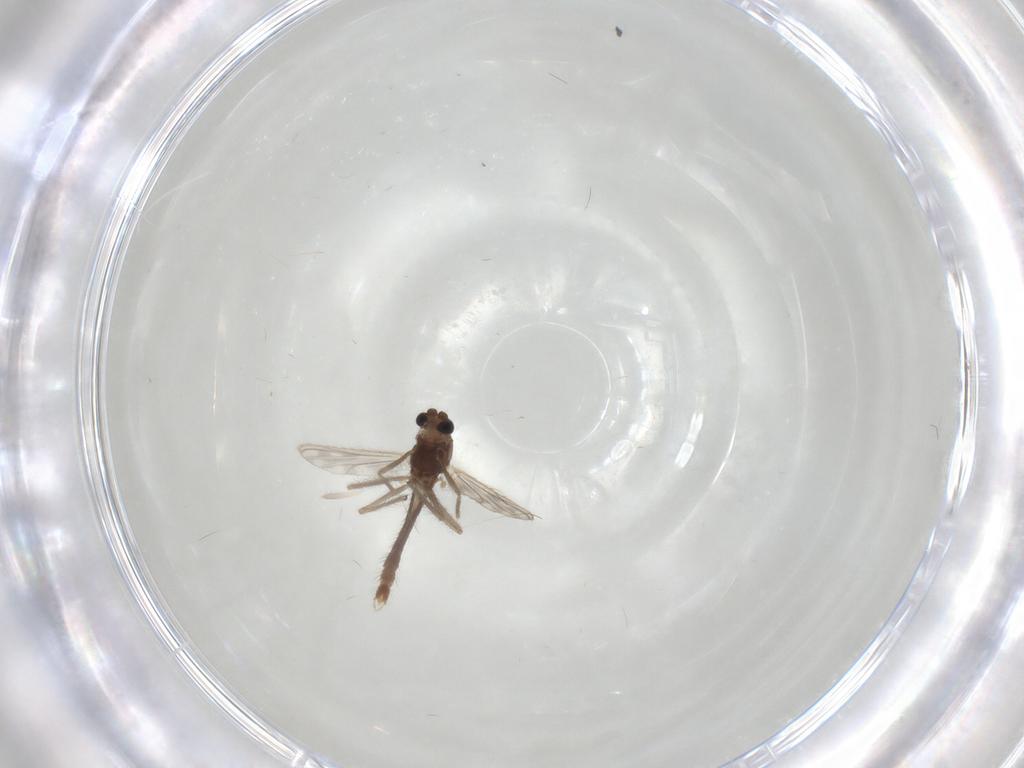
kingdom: Animalia
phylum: Arthropoda
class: Insecta
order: Diptera
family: Chironomidae
